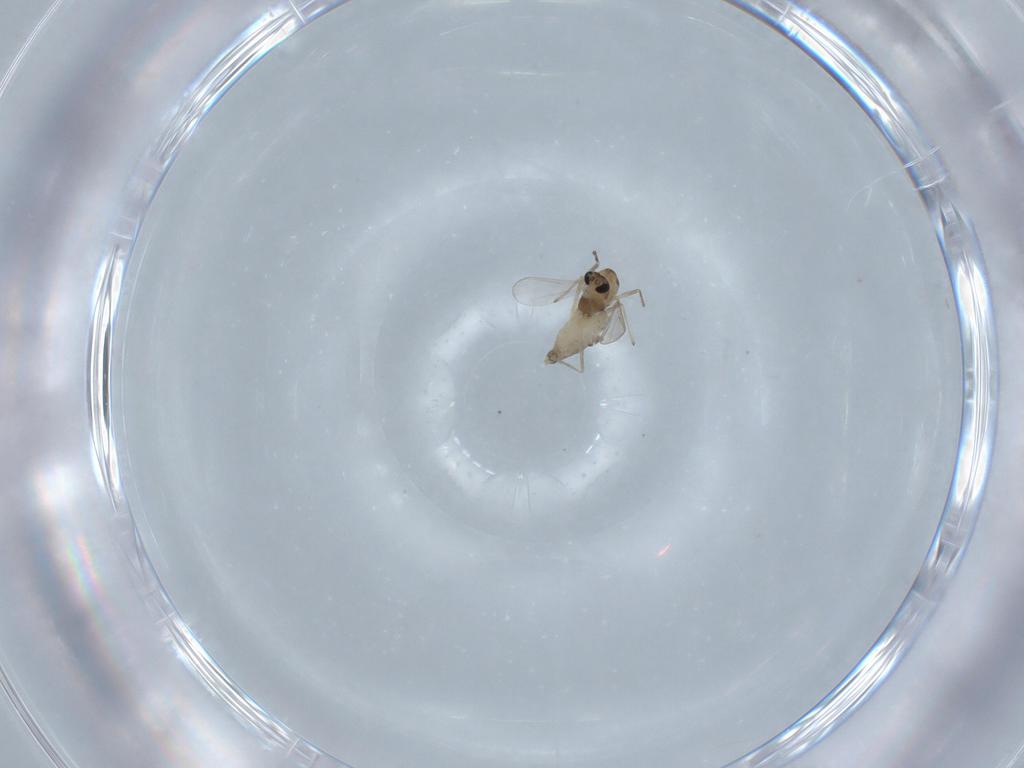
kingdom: Animalia
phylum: Arthropoda
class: Insecta
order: Diptera
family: Chironomidae
